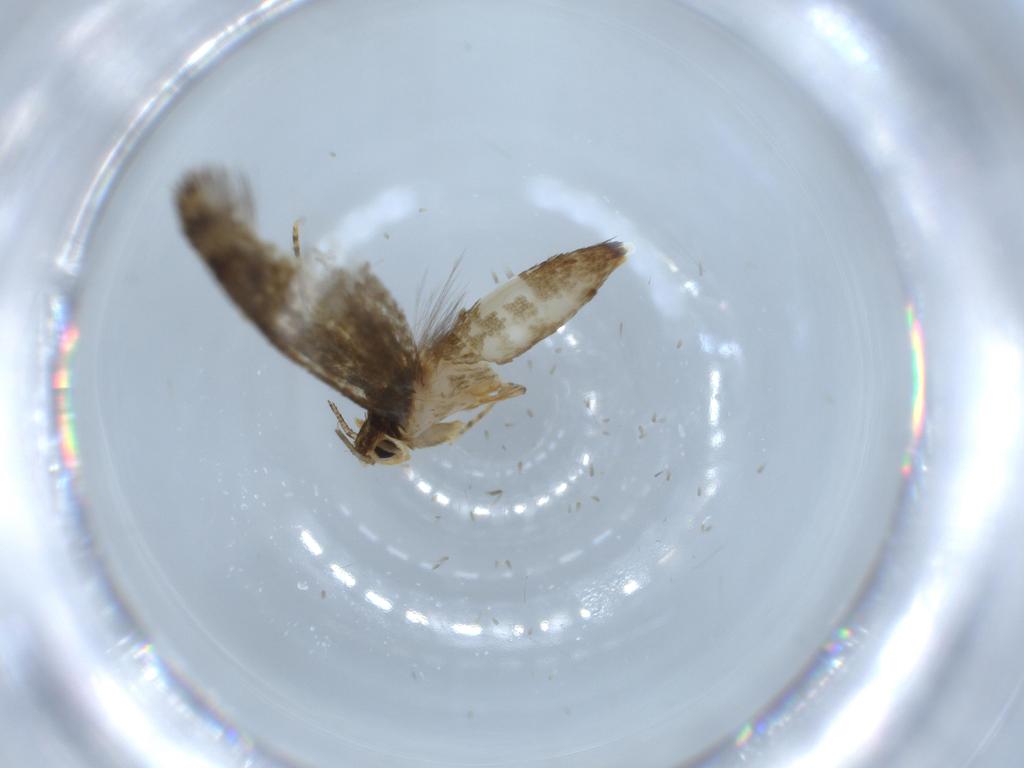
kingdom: Animalia
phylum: Arthropoda
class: Insecta
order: Lepidoptera
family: Tineidae
